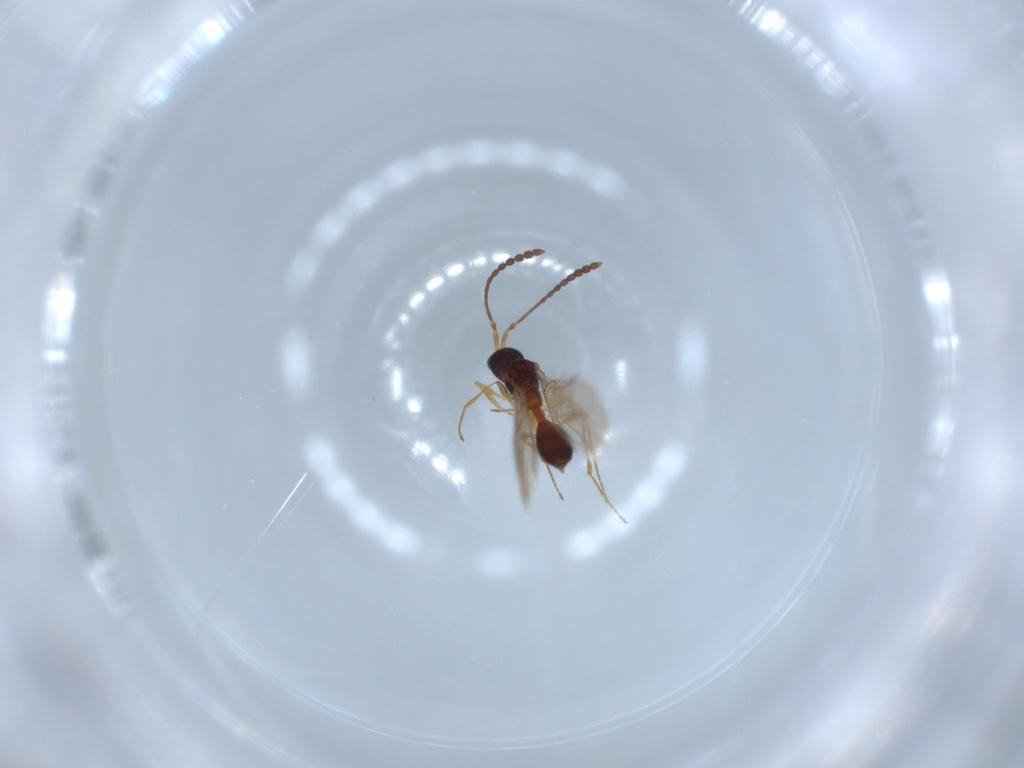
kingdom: Animalia
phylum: Arthropoda
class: Insecta
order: Hymenoptera
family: Diapriidae
